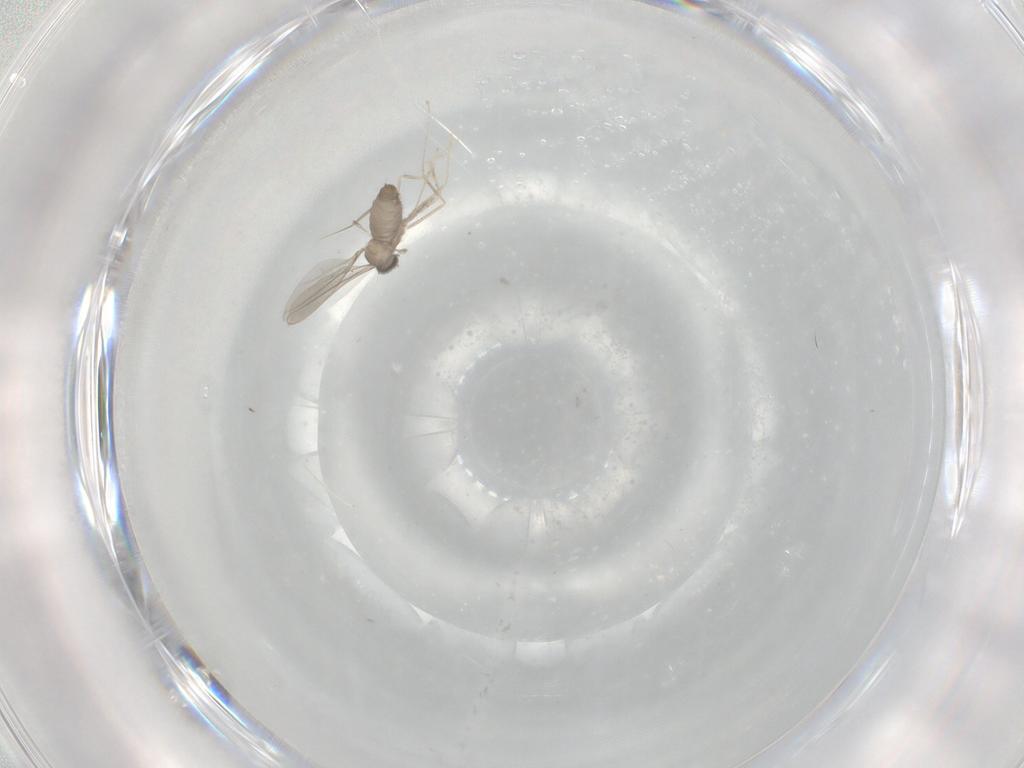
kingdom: Animalia
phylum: Arthropoda
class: Insecta
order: Diptera
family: Cecidomyiidae
